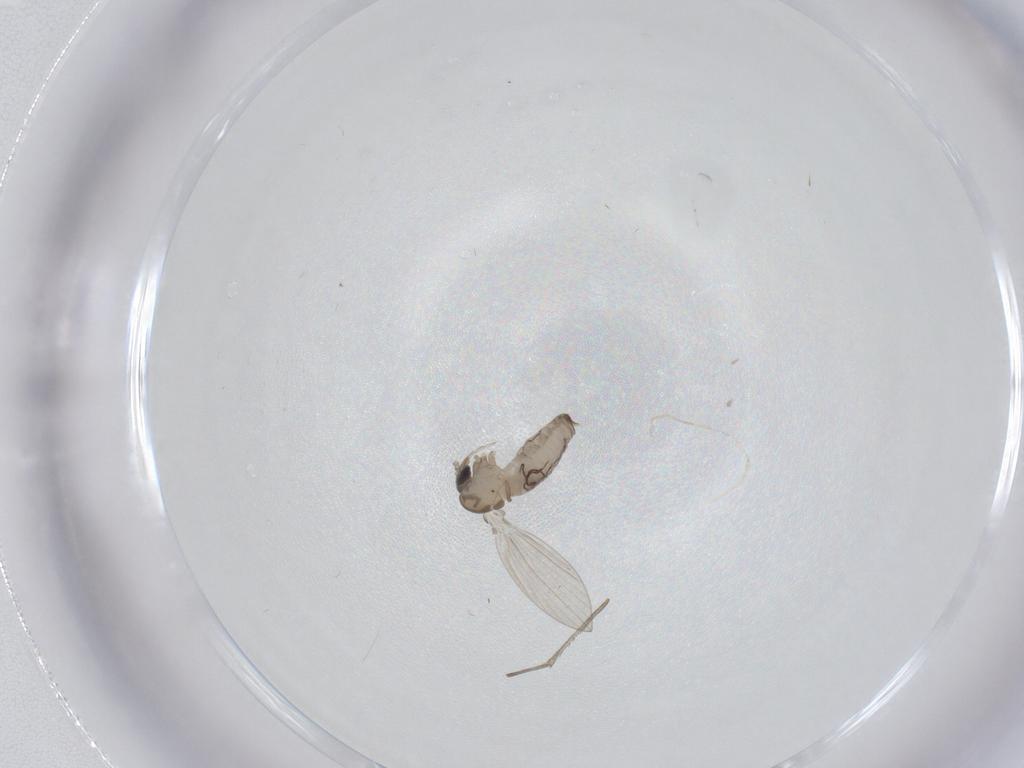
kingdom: Animalia
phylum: Arthropoda
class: Insecta
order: Diptera
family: Psychodidae
